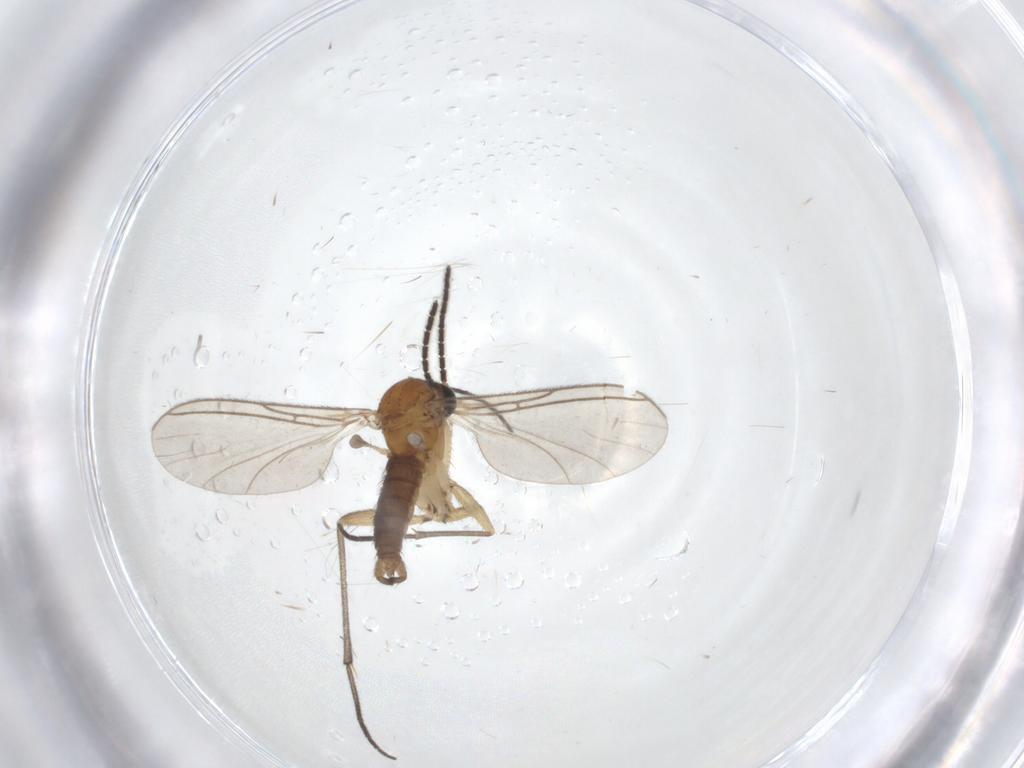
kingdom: Animalia
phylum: Arthropoda
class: Insecta
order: Diptera
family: Sciaridae
